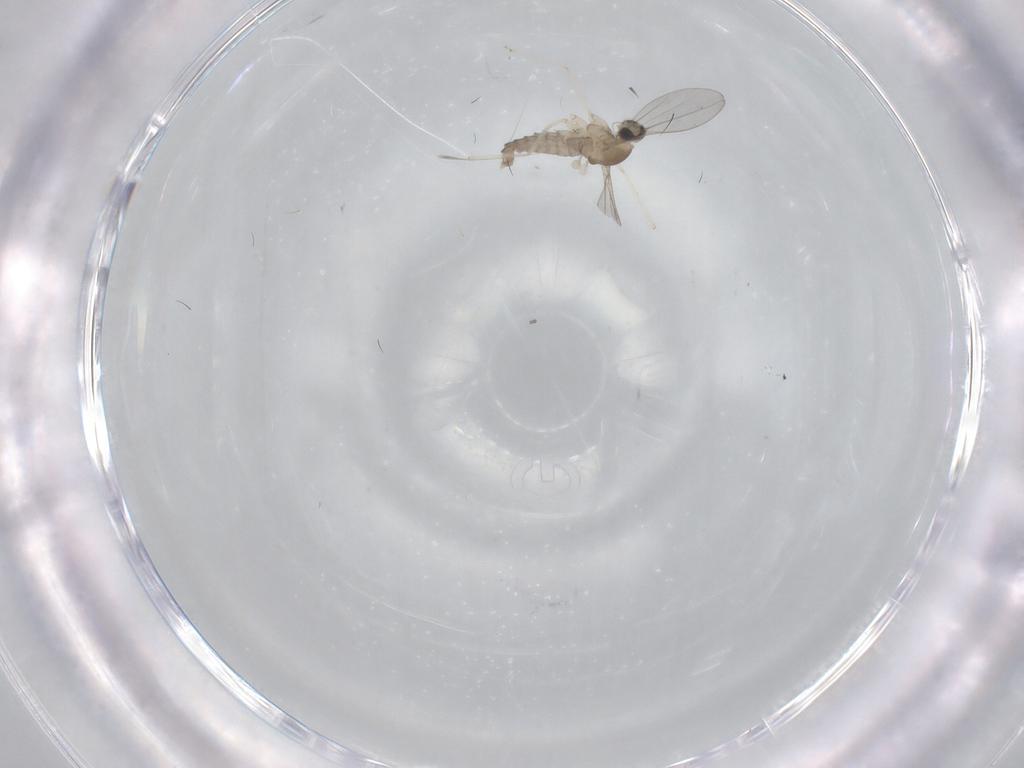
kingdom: Animalia
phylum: Arthropoda
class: Insecta
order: Diptera
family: Cecidomyiidae
